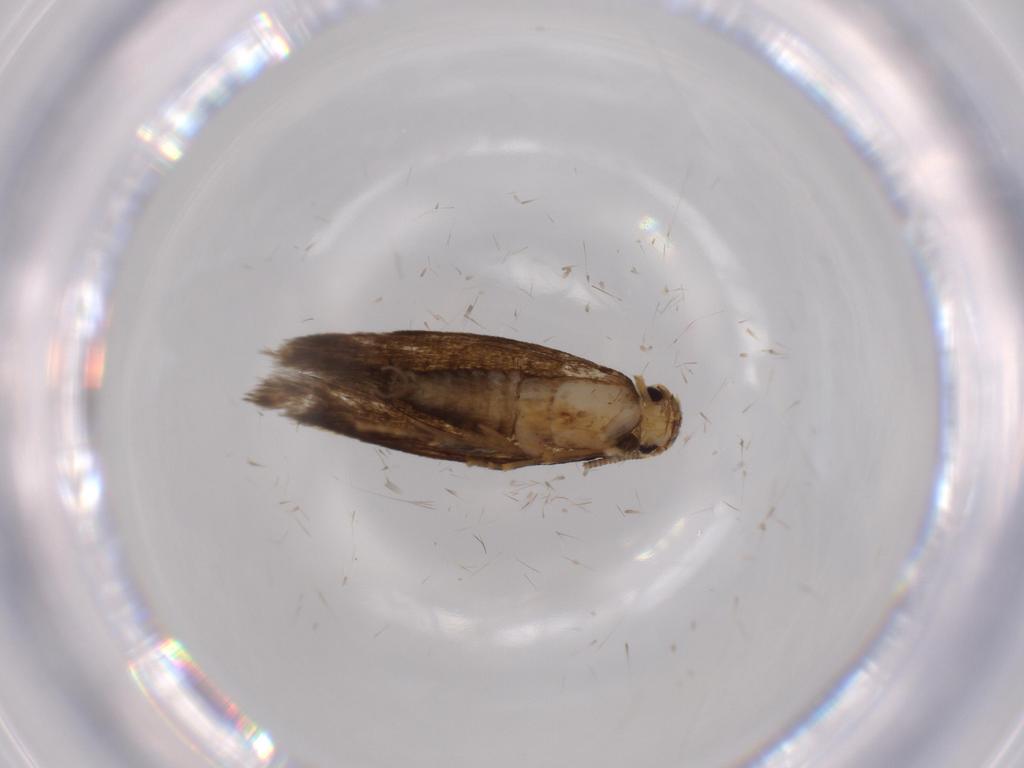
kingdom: Animalia
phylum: Arthropoda
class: Insecta
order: Lepidoptera
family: Tineidae
